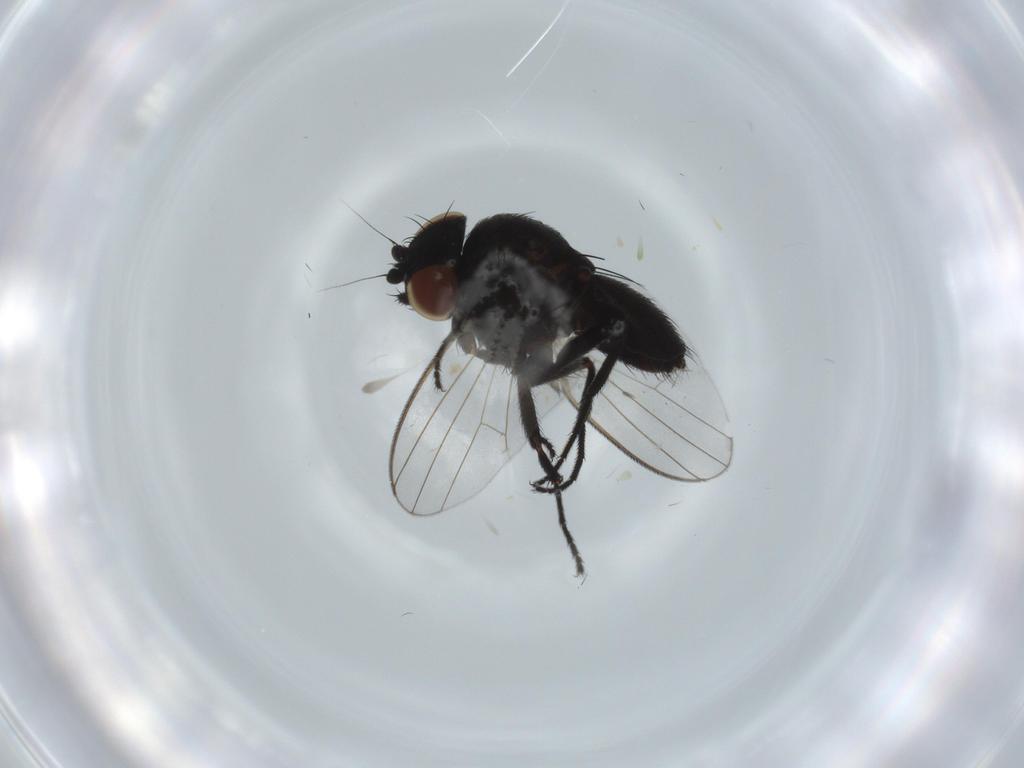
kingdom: Animalia
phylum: Arthropoda
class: Insecta
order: Diptera
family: Milichiidae
